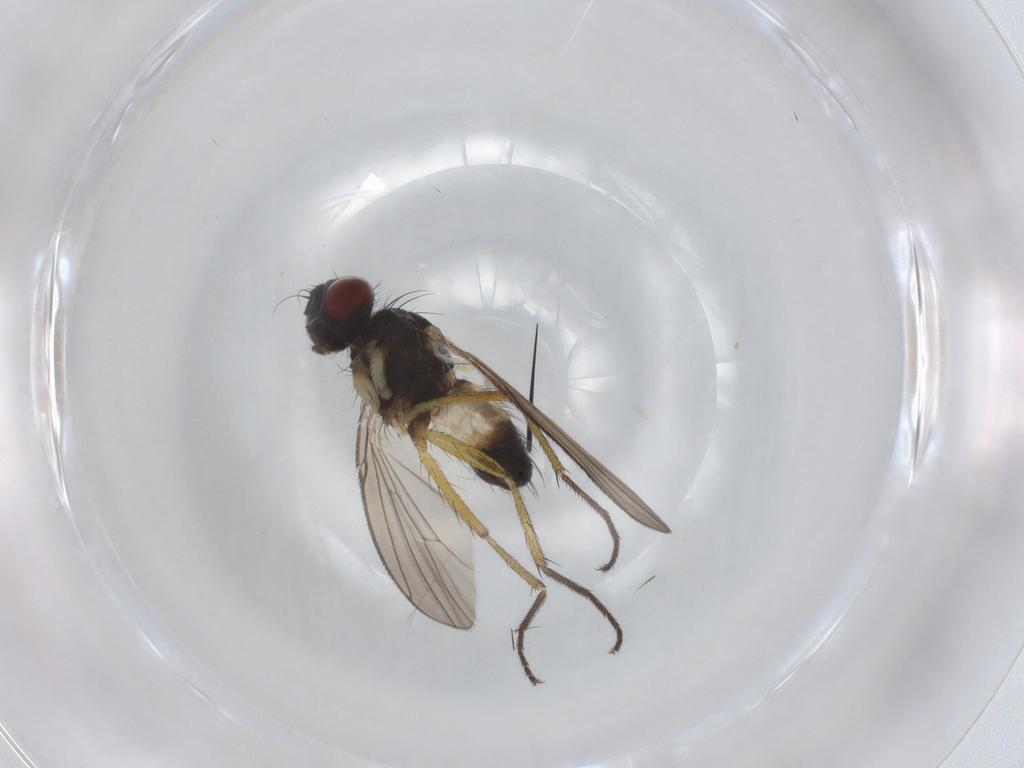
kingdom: Animalia
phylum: Arthropoda
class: Insecta
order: Diptera
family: Muscidae
